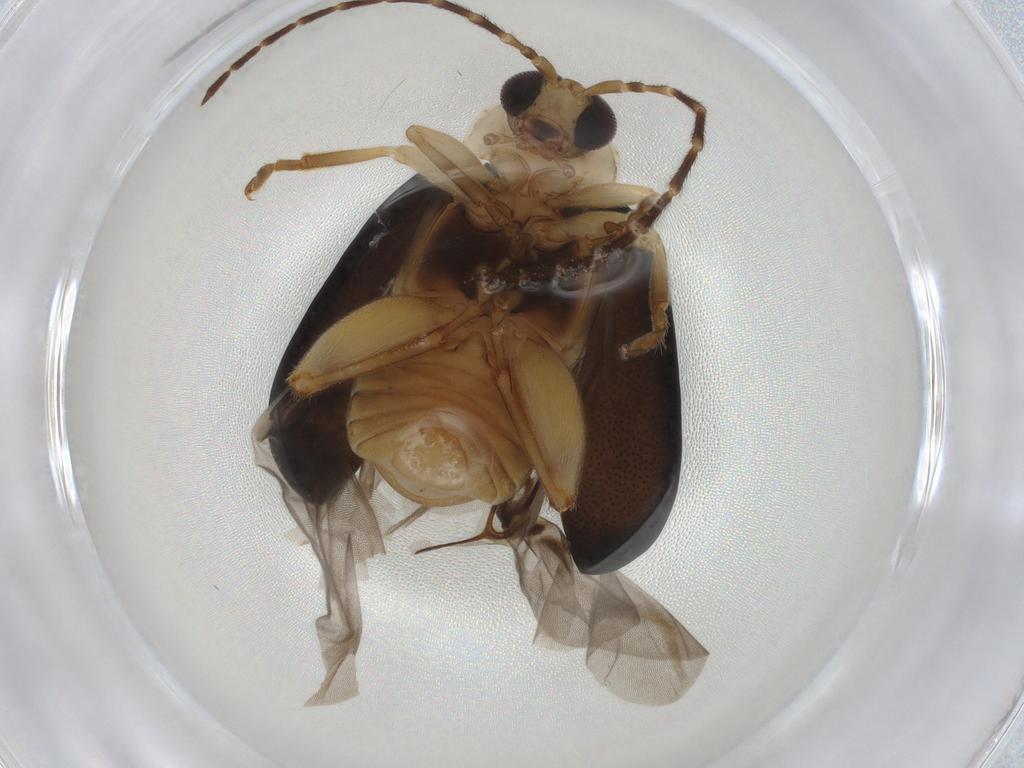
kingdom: Animalia
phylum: Arthropoda
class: Insecta
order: Coleoptera
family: Chrysomelidae
